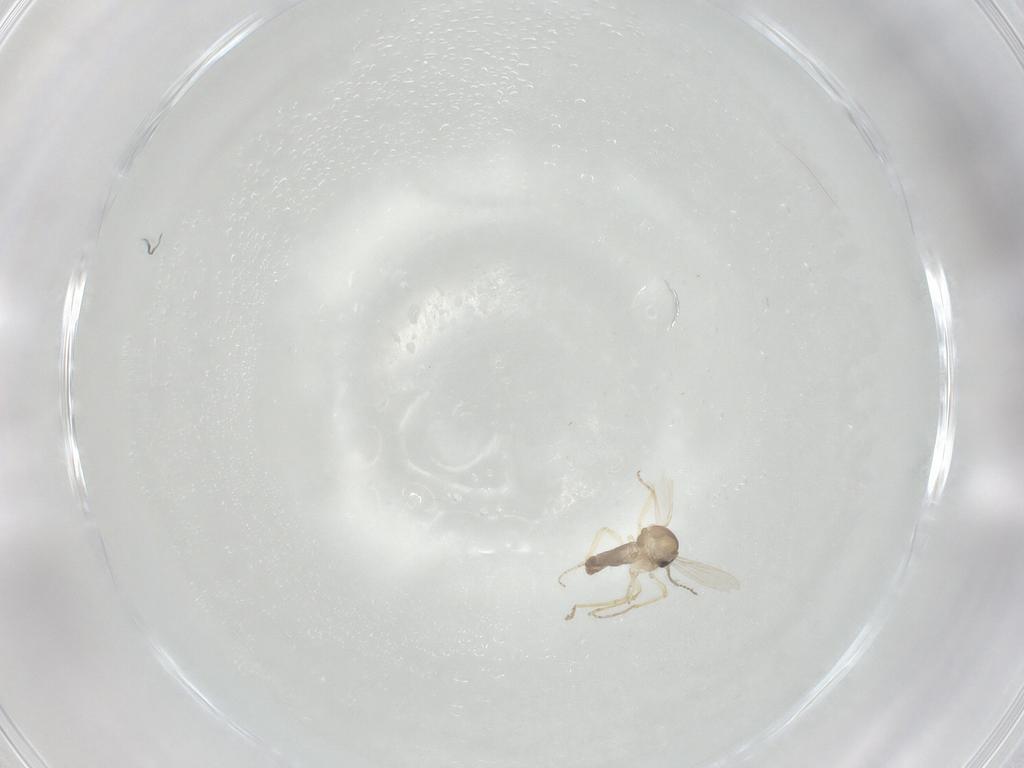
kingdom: Animalia
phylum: Arthropoda
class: Insecta
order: Diptera
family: Ceratopogonidae
